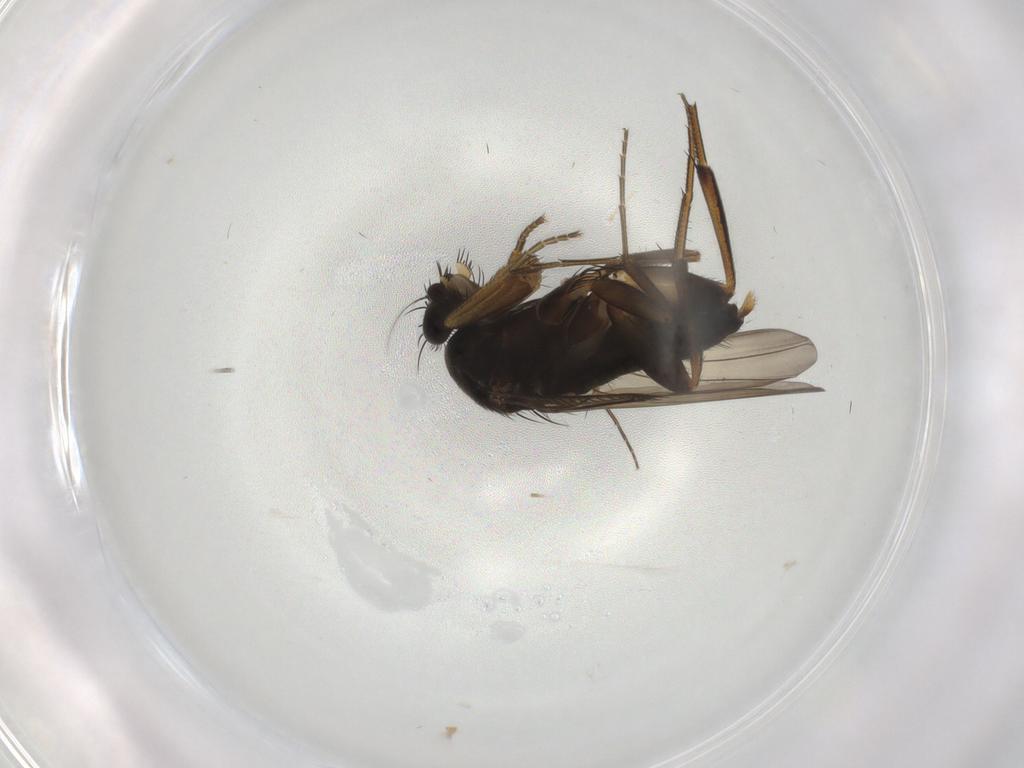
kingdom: Animalia
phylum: Arthropoda
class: Insecta
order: Diptera
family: Phoridae
